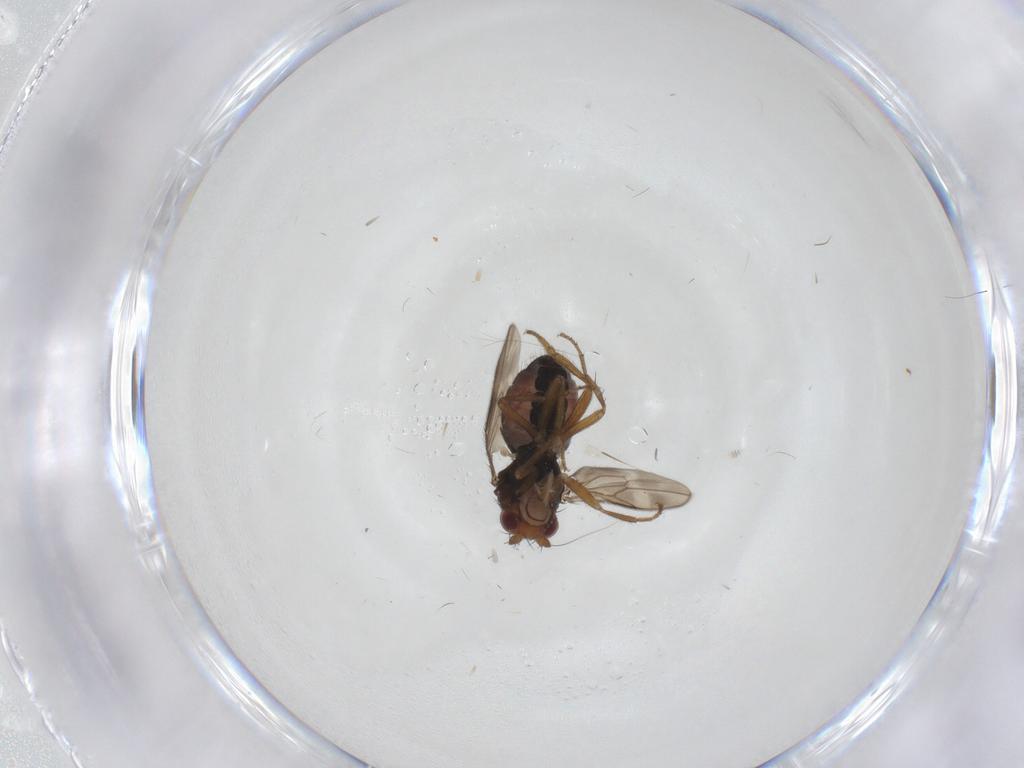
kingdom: Animalia
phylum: Arthropoda
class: Insecta
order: Diptera
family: Sphaeroceridae
